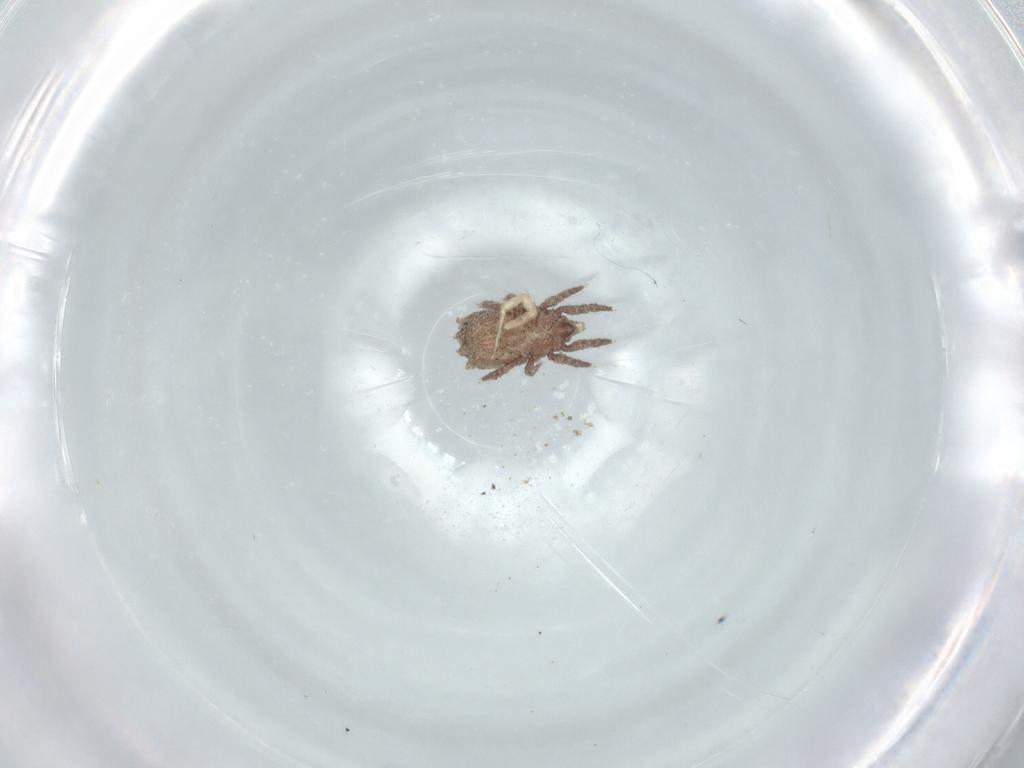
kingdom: Animalia
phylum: Arthropoda
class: Arachnida
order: Sarcoptiformes
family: Crotoniidae
